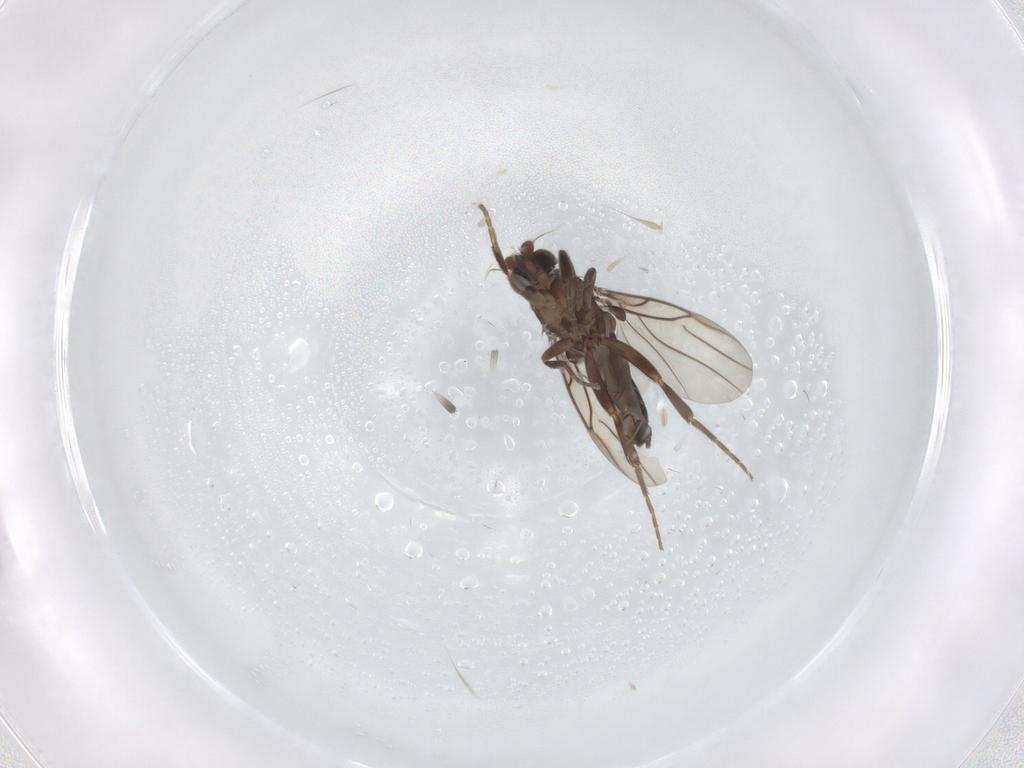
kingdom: Animalia
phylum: Arthropoda
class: Insecta
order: Diptera
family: Phoridae
